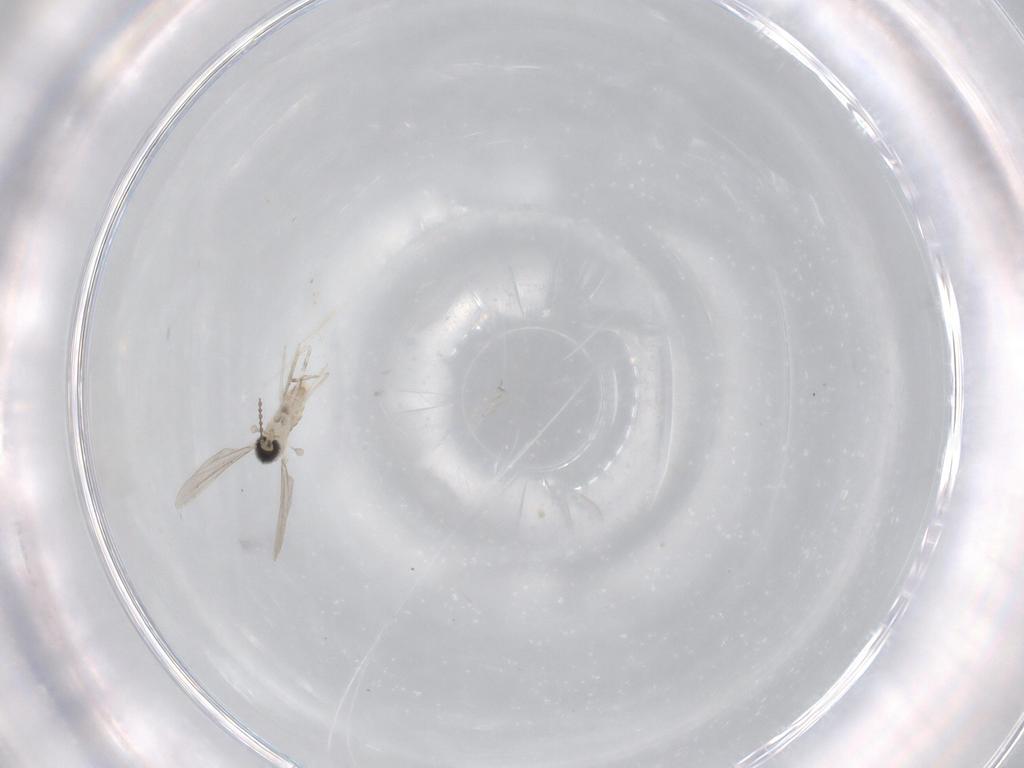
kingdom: Animalia
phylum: Arthropoda
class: Insecta
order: Diptera
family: Cecidomyiidae
